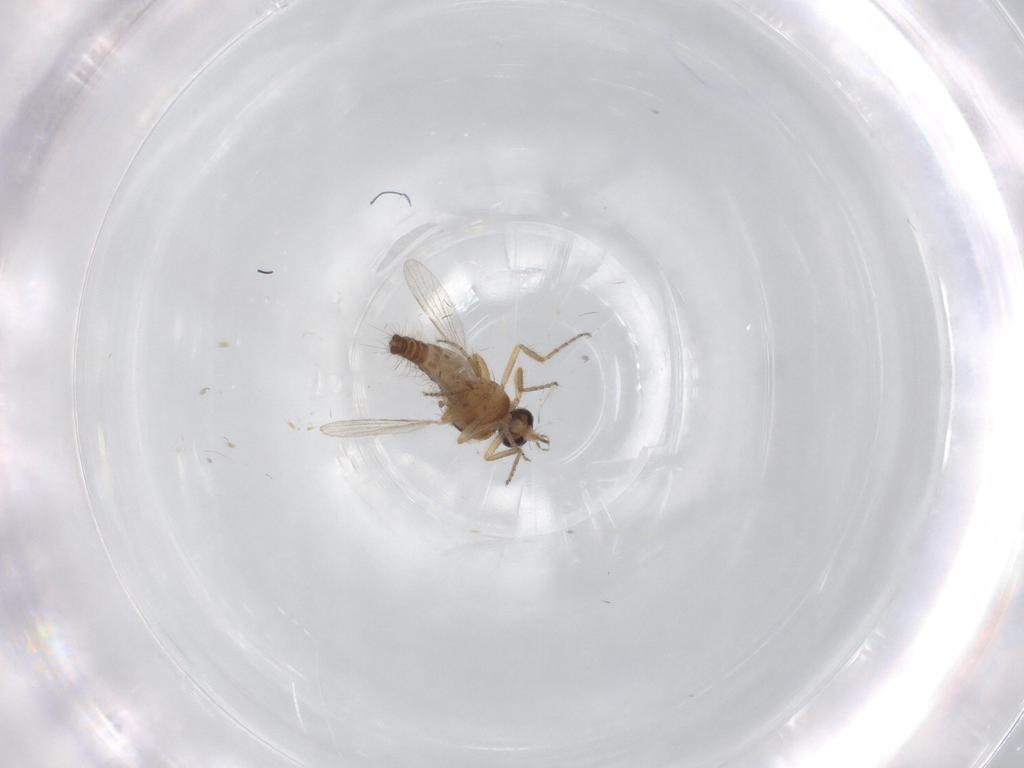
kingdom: Animalia
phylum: Arthropoda
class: Insecta
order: Diptera
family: Ceratopogonidae
